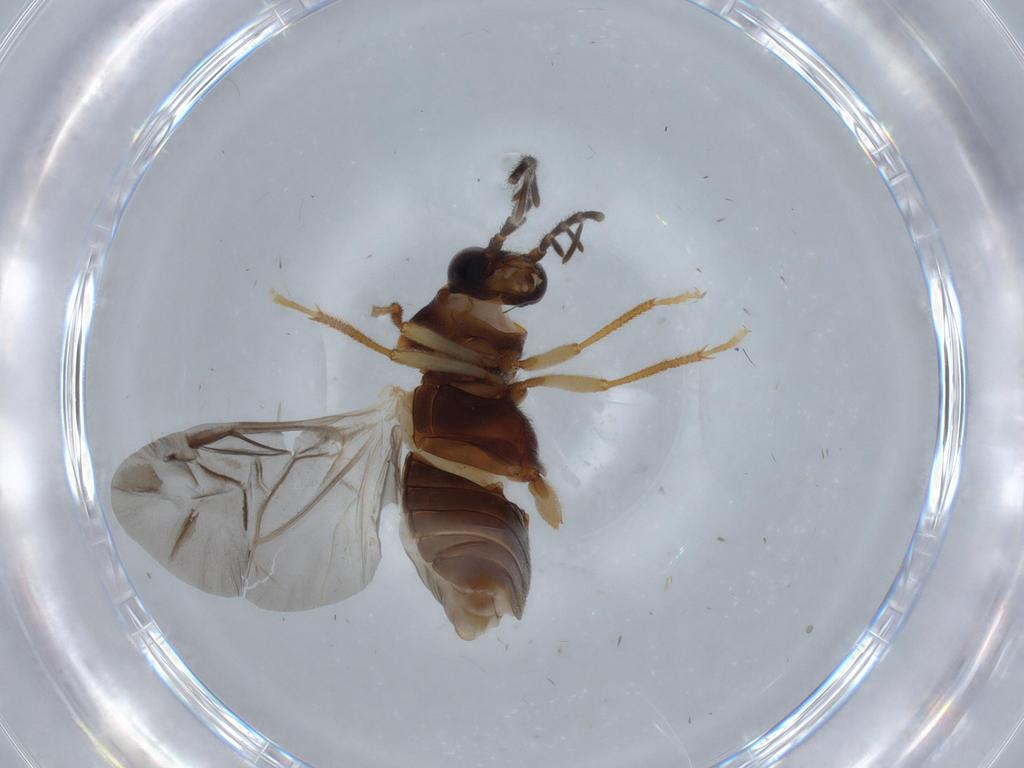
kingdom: Animalia
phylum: Arthropoda
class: Insecta
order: Coleoptera
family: Ptilodactylidae
